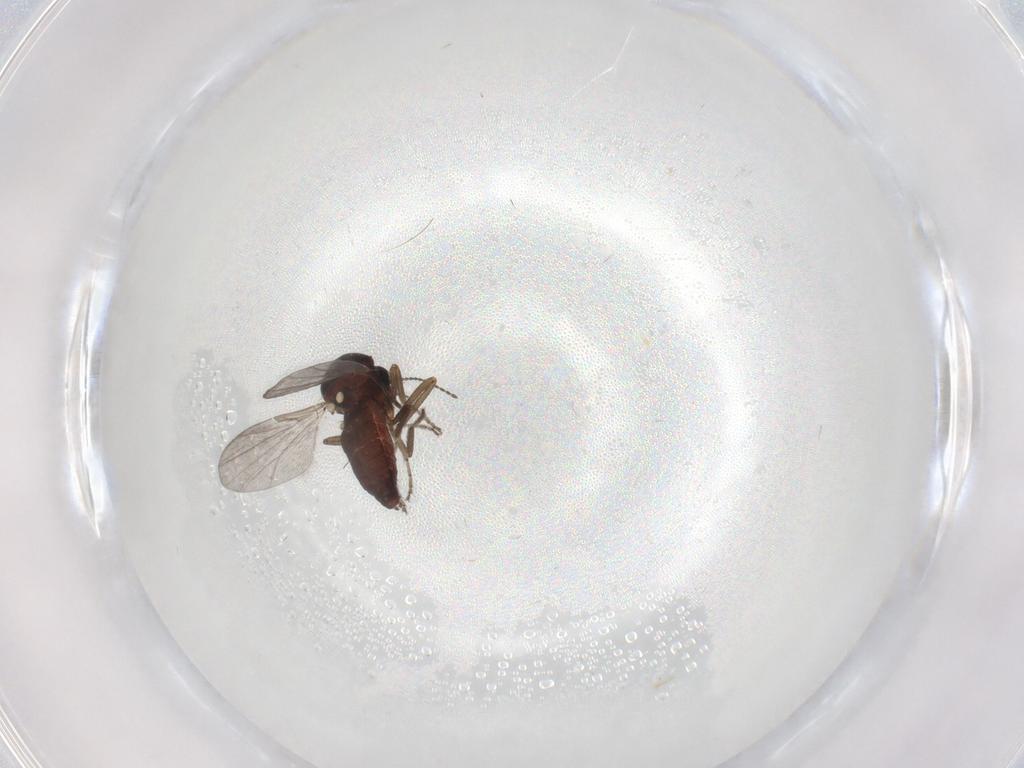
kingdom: Animalia
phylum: Arthropoda
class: Insecta
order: Diptera
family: Ceratopogonidae
